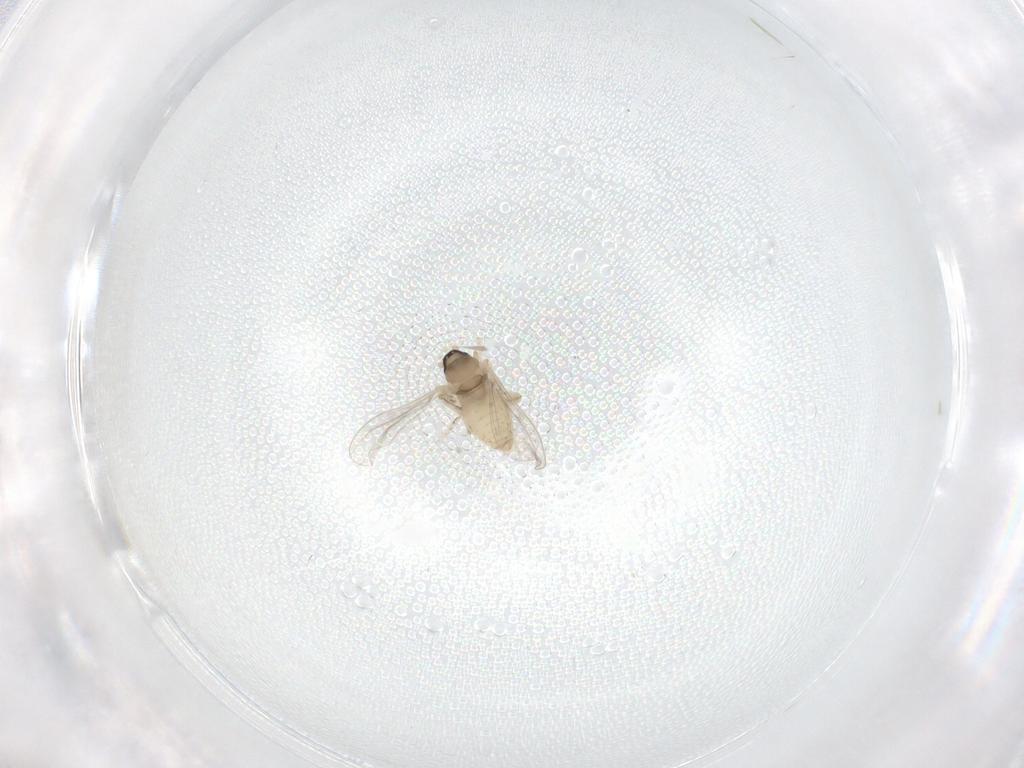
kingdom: Animalia
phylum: Arthropoda
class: Insecta
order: Diptera
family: Cecidomyiidae
